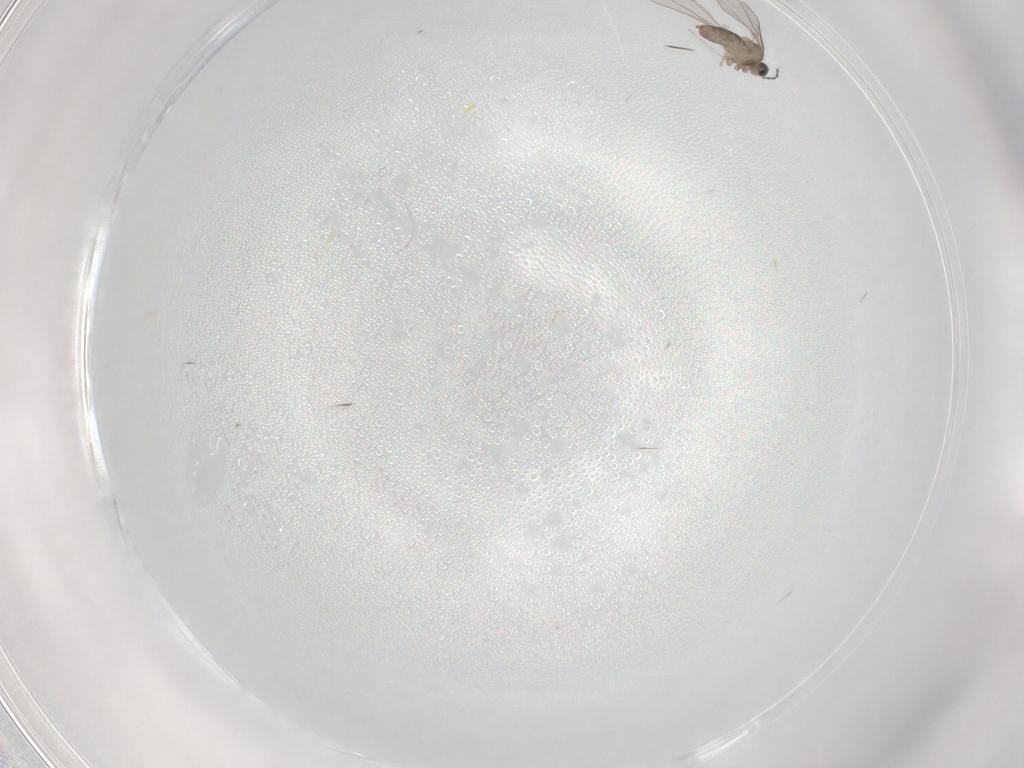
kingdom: Animalia
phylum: Arthropoda
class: Insecta
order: Diptera
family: Cecidomyiidae
